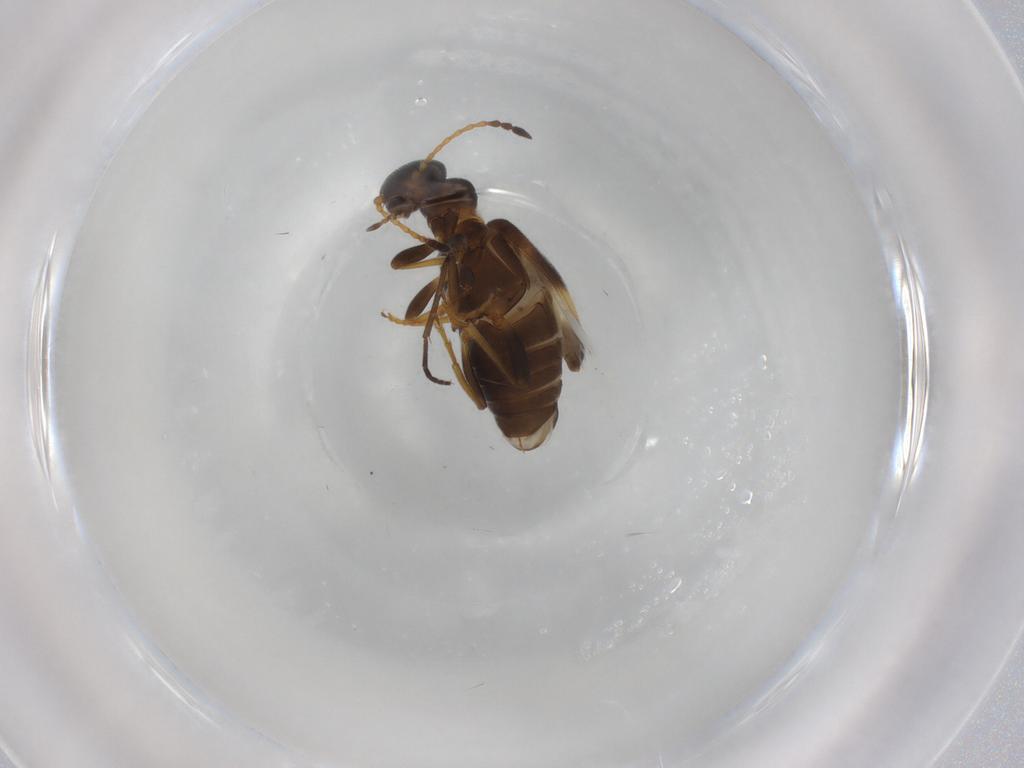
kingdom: Animalia
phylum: Arthropoda
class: Insecta
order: Coleoptera
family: Anthicidae
